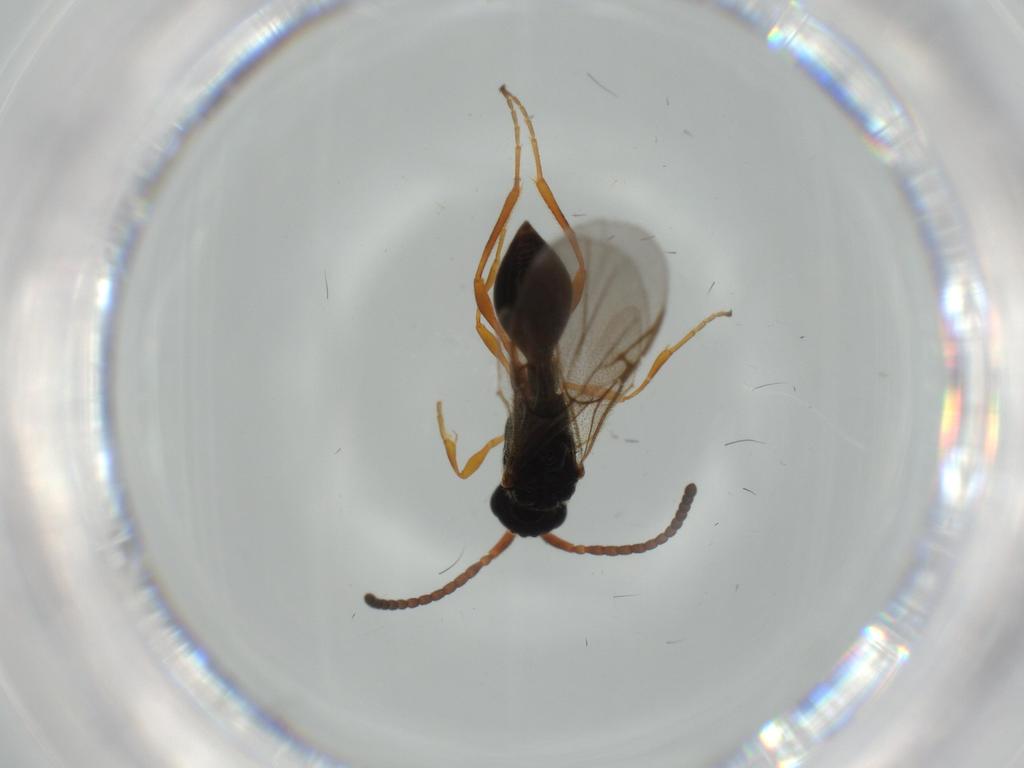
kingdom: Animalia
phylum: Arthropoda
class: Insecta
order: Hymenoptera
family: Diapriidae
